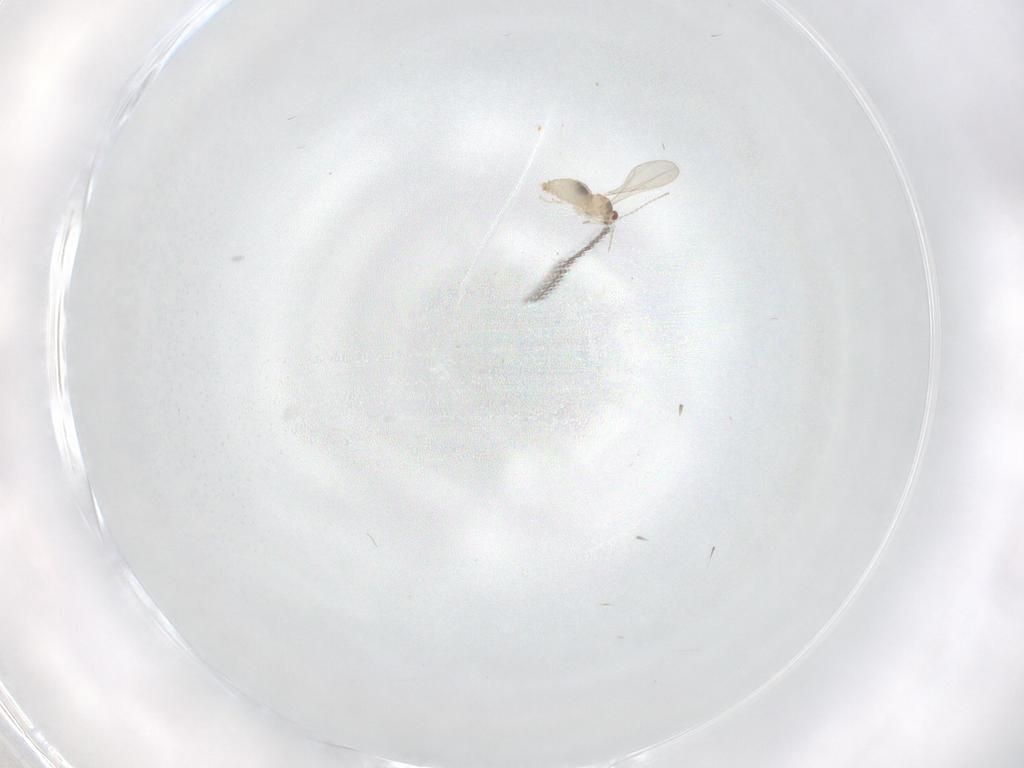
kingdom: Animalia
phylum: Arthropoda
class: Insecta
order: Diptera
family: Cecidomyiidae
